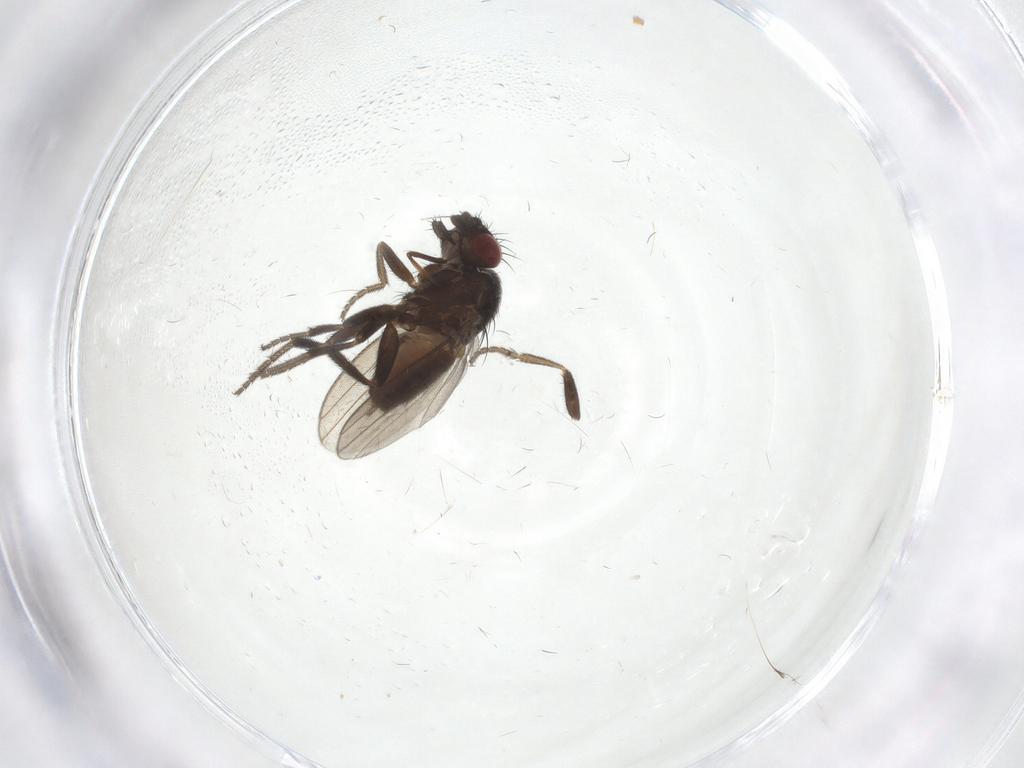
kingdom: Animalia
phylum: Arthropoda
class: Insecta
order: Diptera
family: Milichiidae
